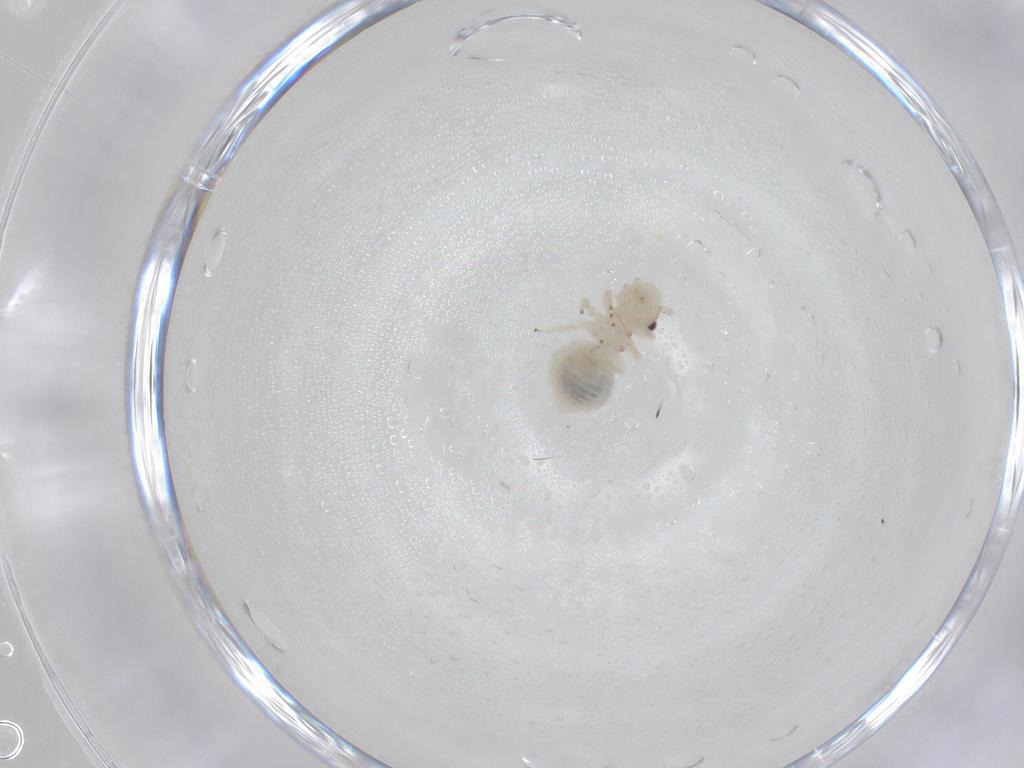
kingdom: Animalia
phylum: Arthropoda
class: Insecta
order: Psocodea
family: Amphipsocidae
